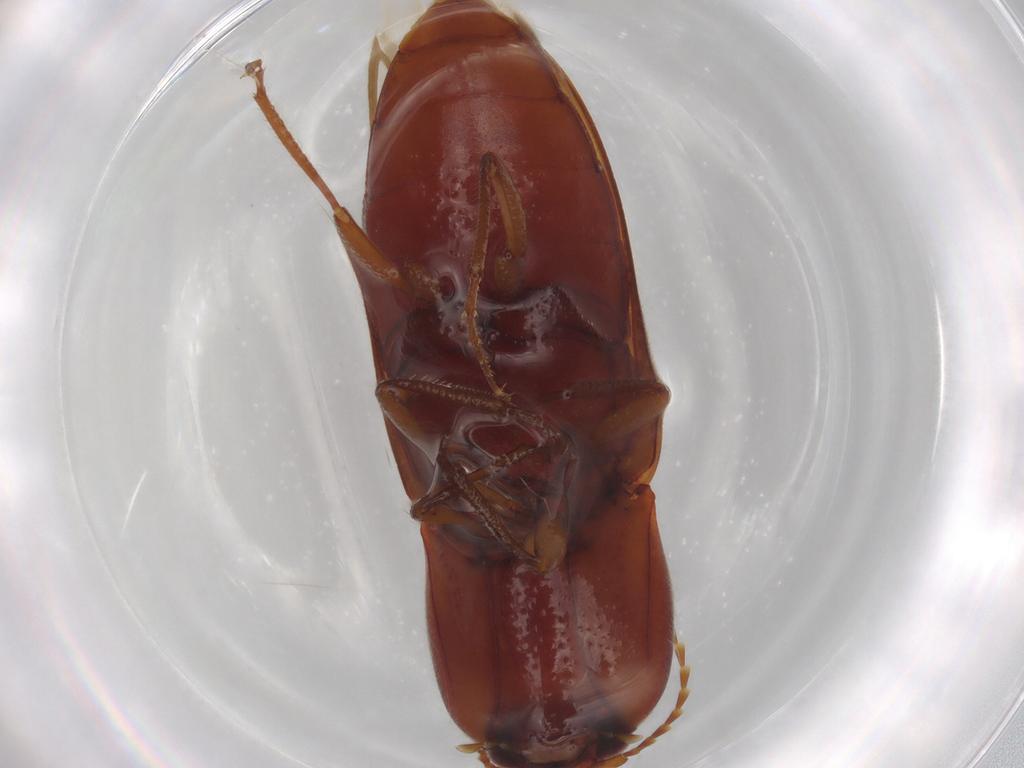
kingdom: Animalia
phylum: Arthropoda
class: Insecta
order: Coleoptera
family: Elateridae
